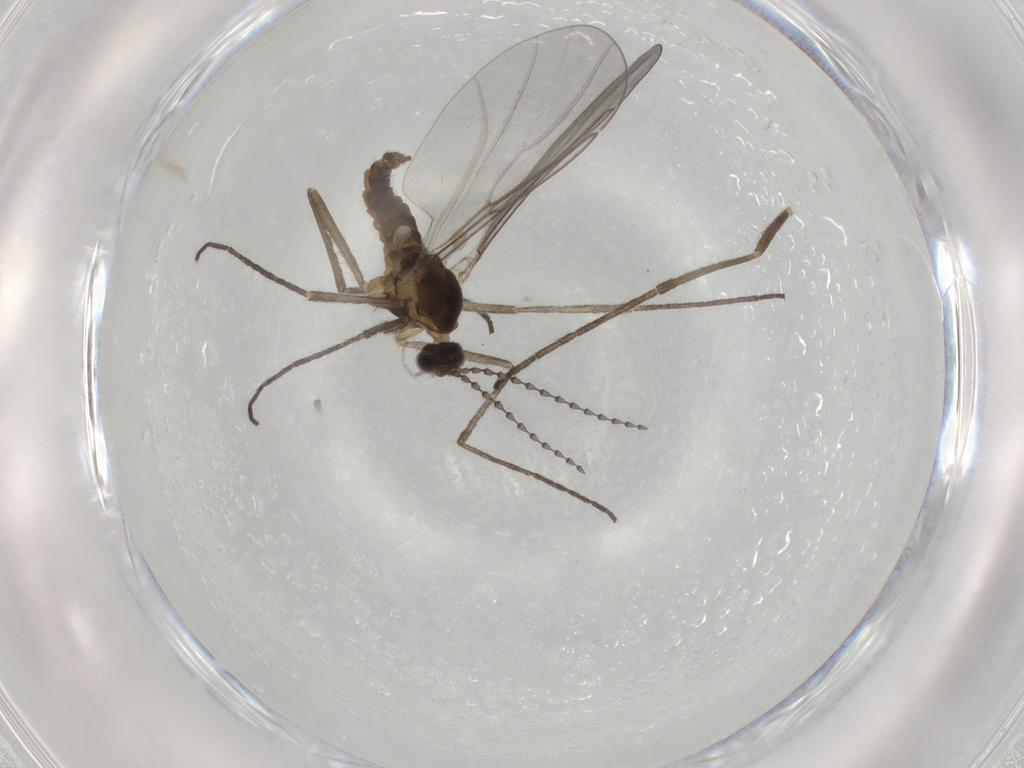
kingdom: Animalia
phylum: Arthropoda
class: Insecta
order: Diptera
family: Cecidomyiidae
